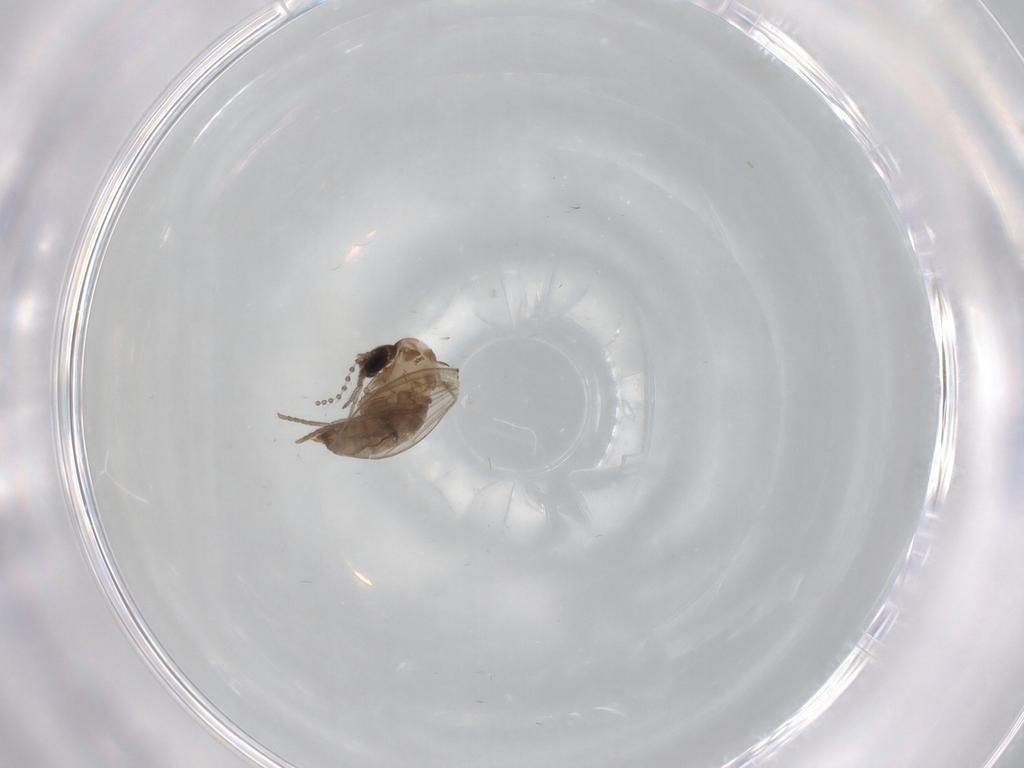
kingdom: Animalia
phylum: Arthropoda
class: Insecta
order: Diptera
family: Psychodidae
